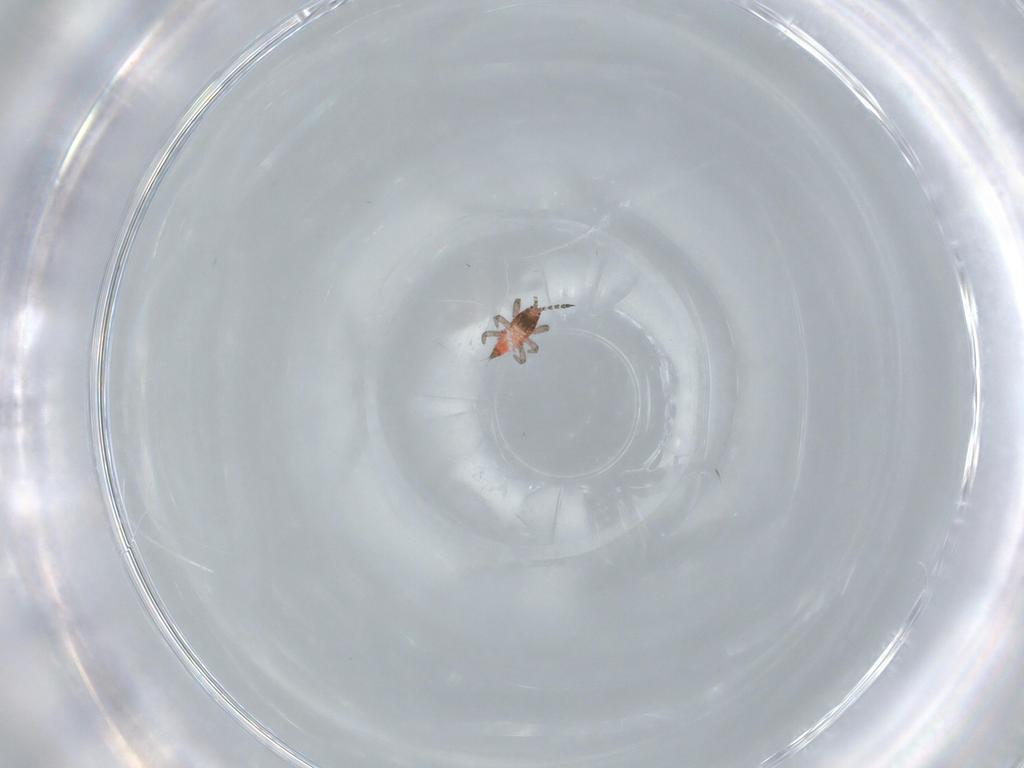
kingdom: Animalia
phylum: Arthropoda
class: Insecta
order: Thysanoptera
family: Phlaeothripidae
